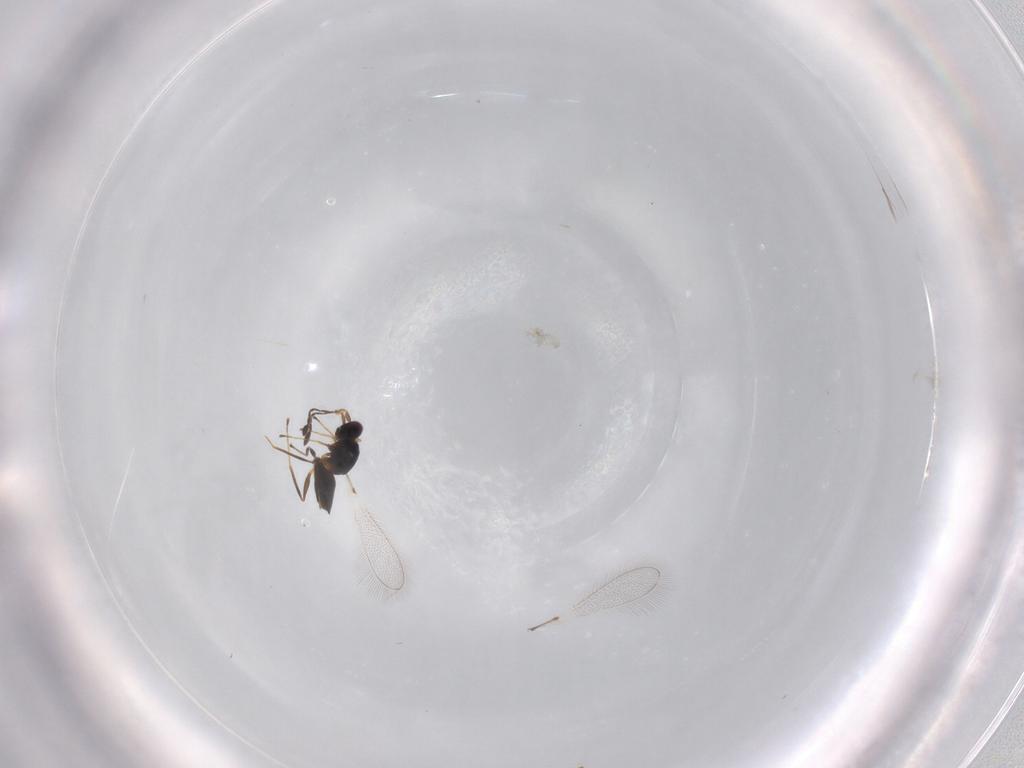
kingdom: Animalia
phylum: Arthropoda
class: Insecta
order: Hymenoptera
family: Mymaridae
